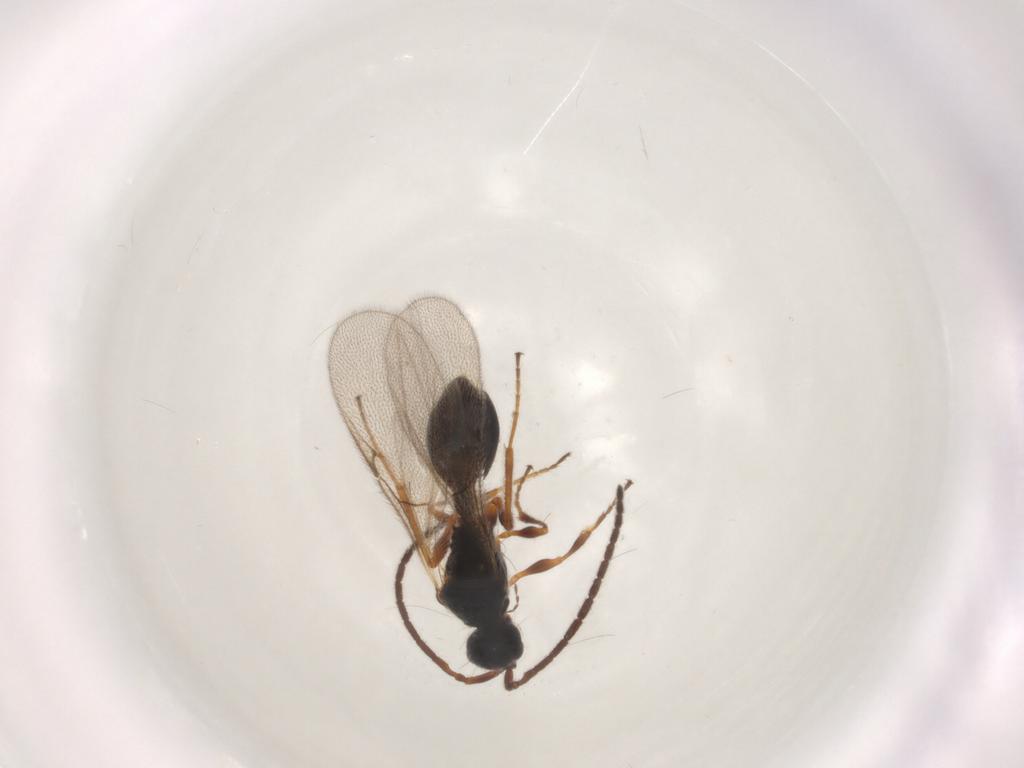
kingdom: Animalia
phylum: Arthropoda
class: Insecta
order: Hymenoptera
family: Diapriidae
